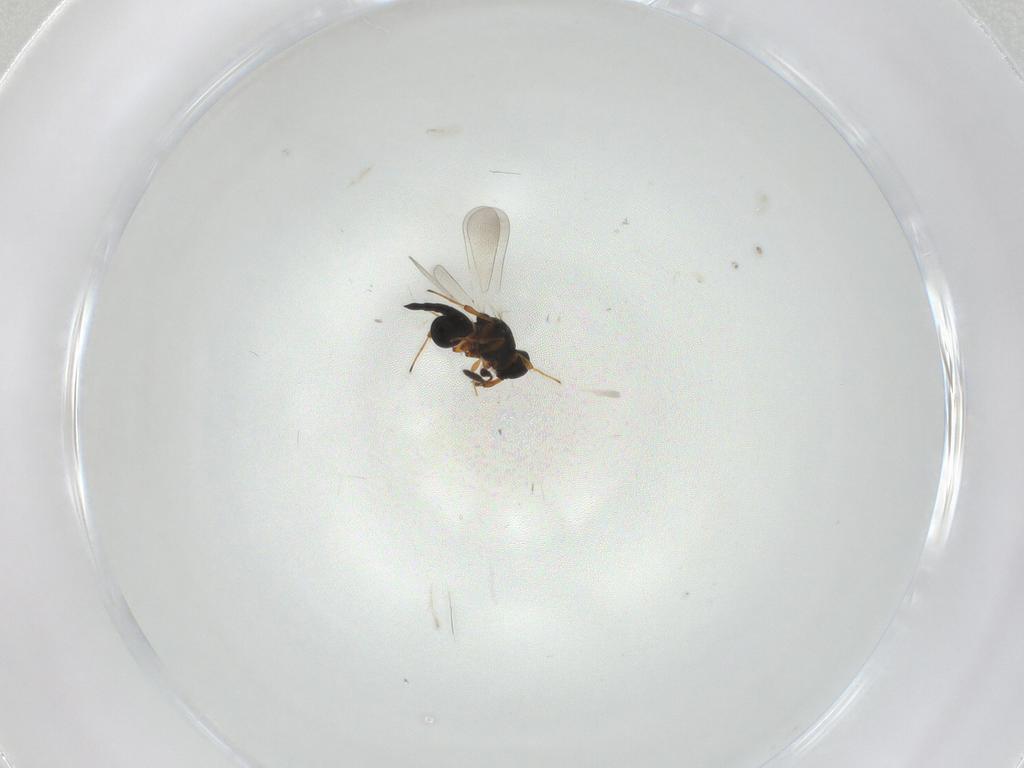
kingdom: Animalia
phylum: Arthropoda
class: Insecta
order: Hymenoptera
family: Platygastridae
